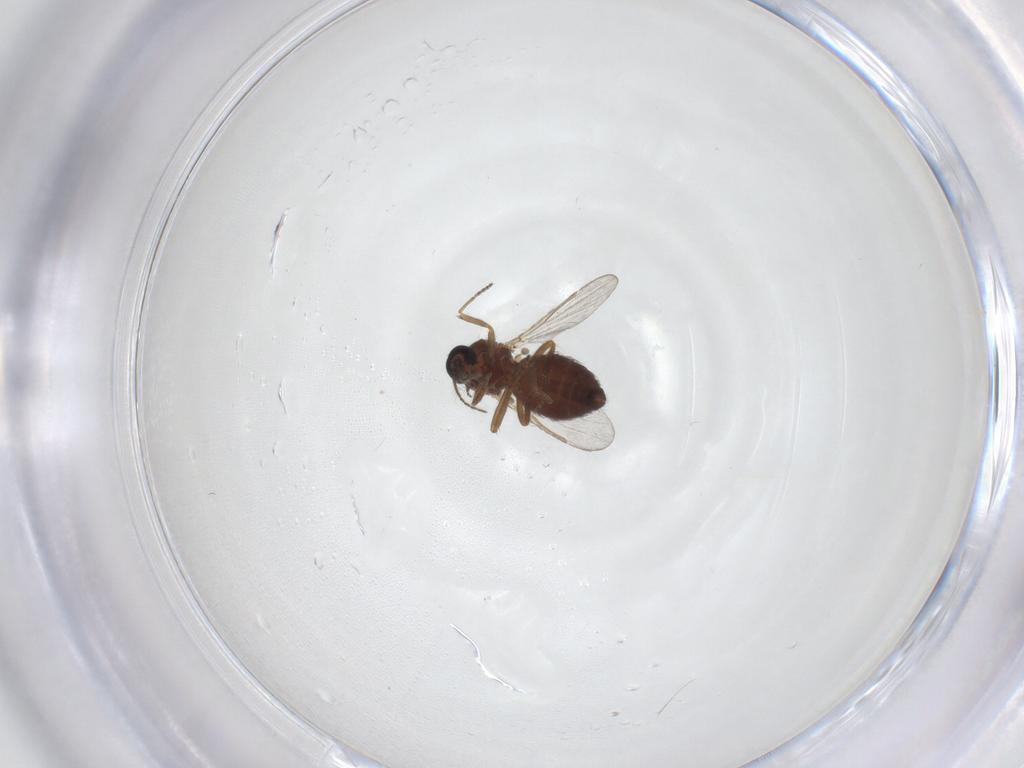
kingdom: Animalia
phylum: Arthropoda
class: Insecta
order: Diptera
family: Ceratopogonidae
